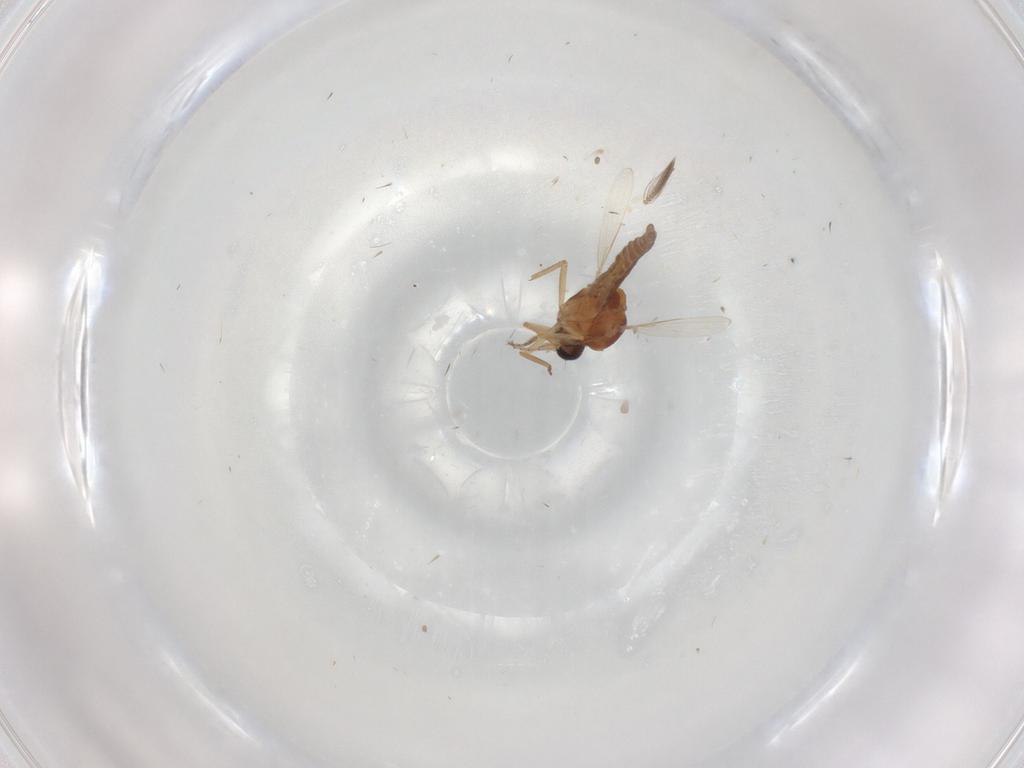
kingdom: Animalia
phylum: Arthropoda
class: Insecta
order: Diptera
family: Ceratopogonidae
